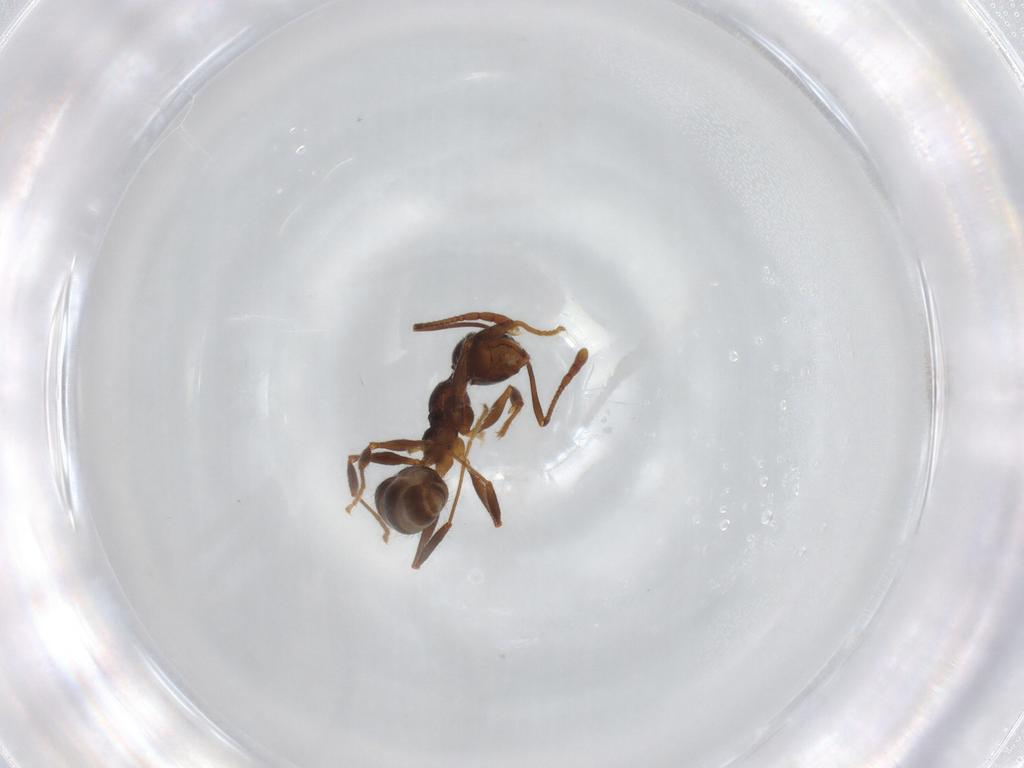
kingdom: Animalia
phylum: Arthropoda
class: Insecta
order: Hymenoptera
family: Formicidae
